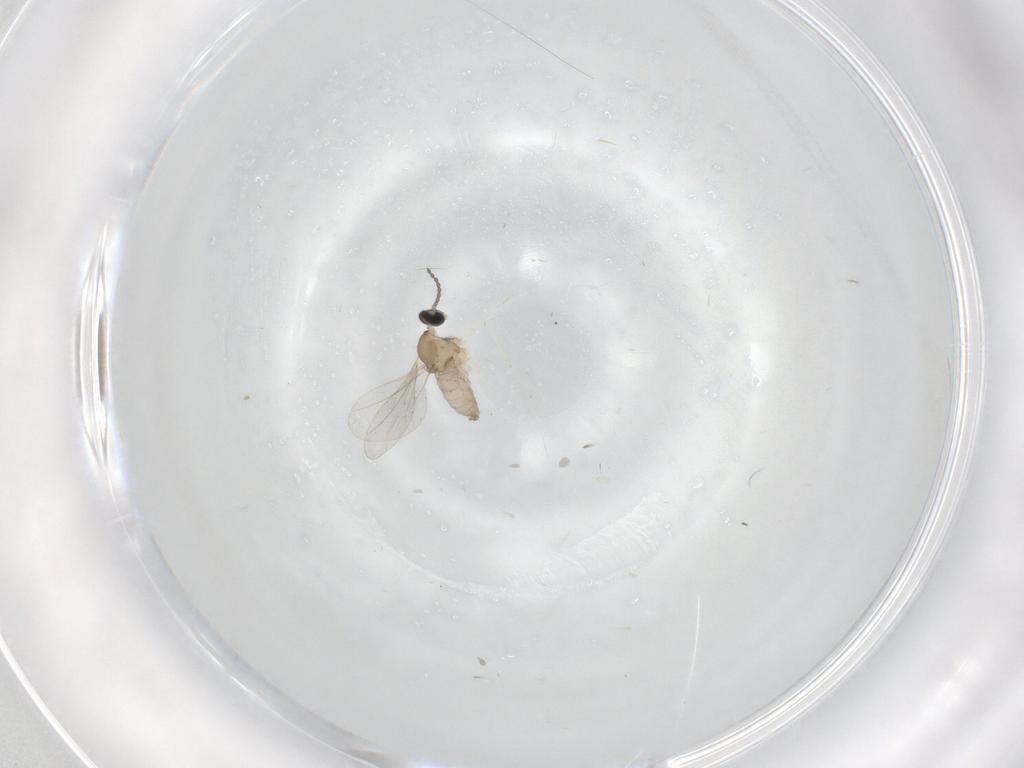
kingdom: Animalia
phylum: Arthropoda
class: Insecta
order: Diptera
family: Cecidomyiidae
